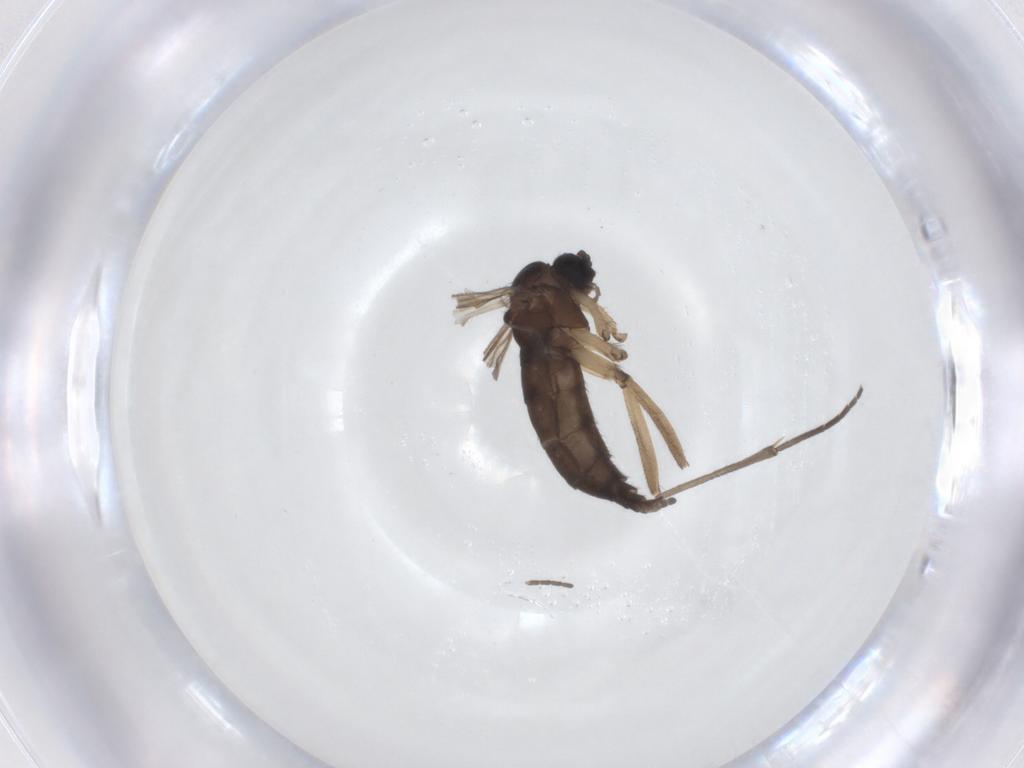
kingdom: Animalia
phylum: Arthropoda
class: Insecta
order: Diptera
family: Sciaridae
